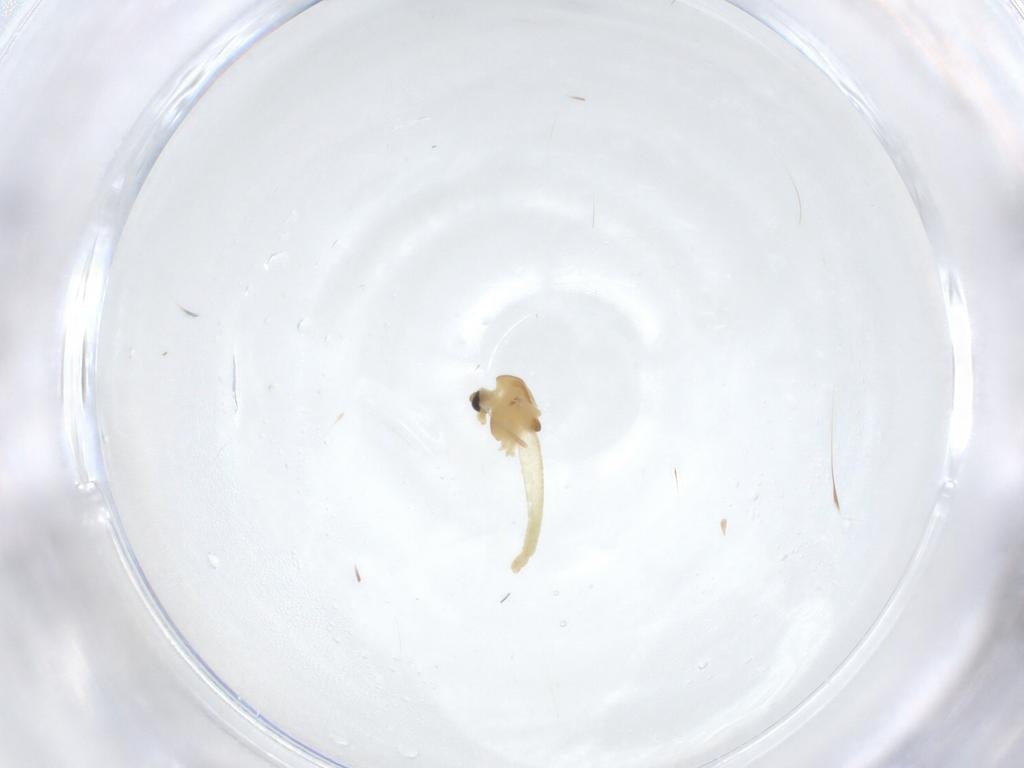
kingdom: Animalia
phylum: Arthropoda
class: Insecta
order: Diptera
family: Chironomidae
